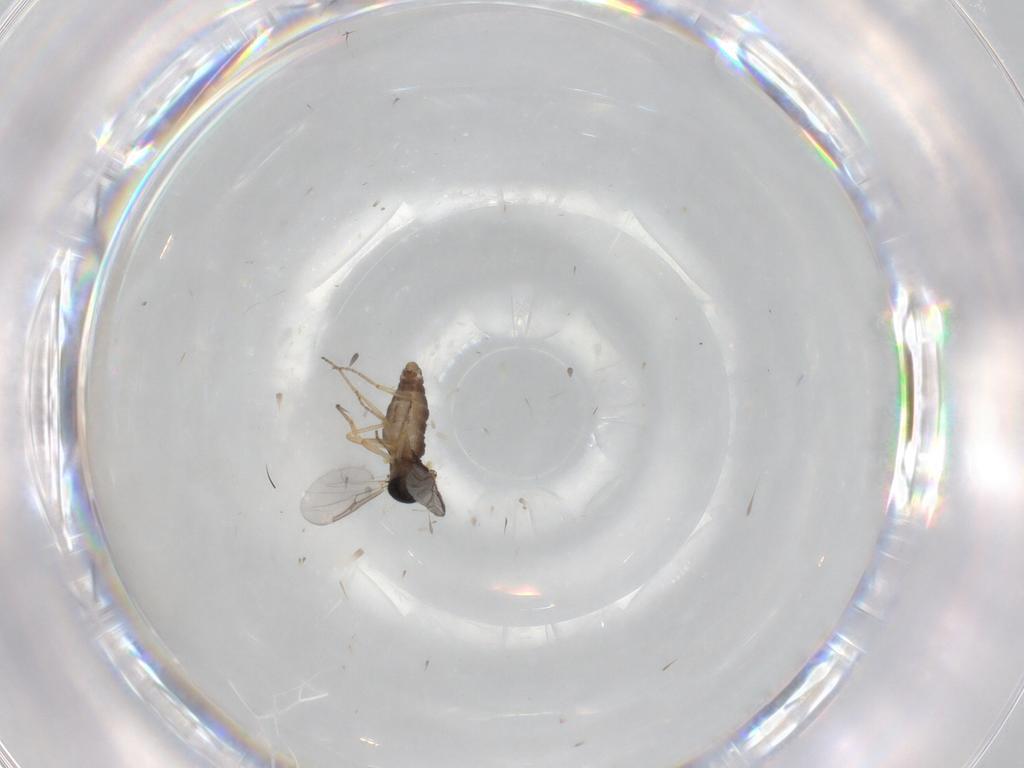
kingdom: Animalia
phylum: Arthropoda
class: Insecta
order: Diptera
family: Ceratopogonidae
